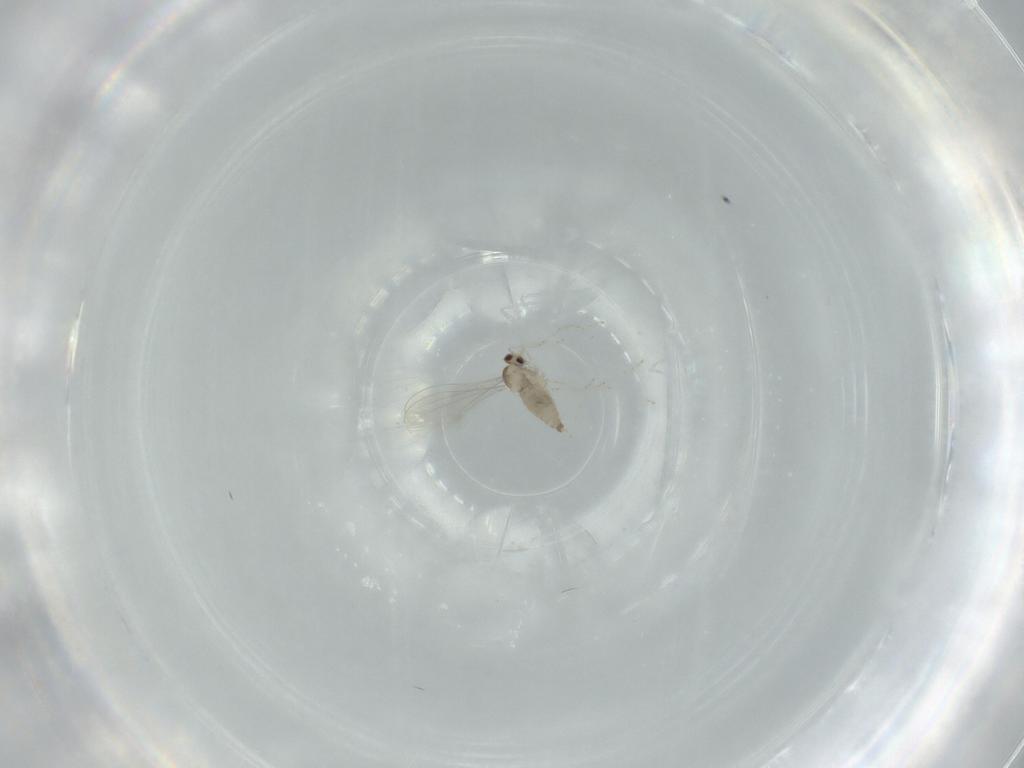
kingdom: Animalia
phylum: Arthropoda
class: Insecta
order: Diptera
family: Cecidomyiidae
